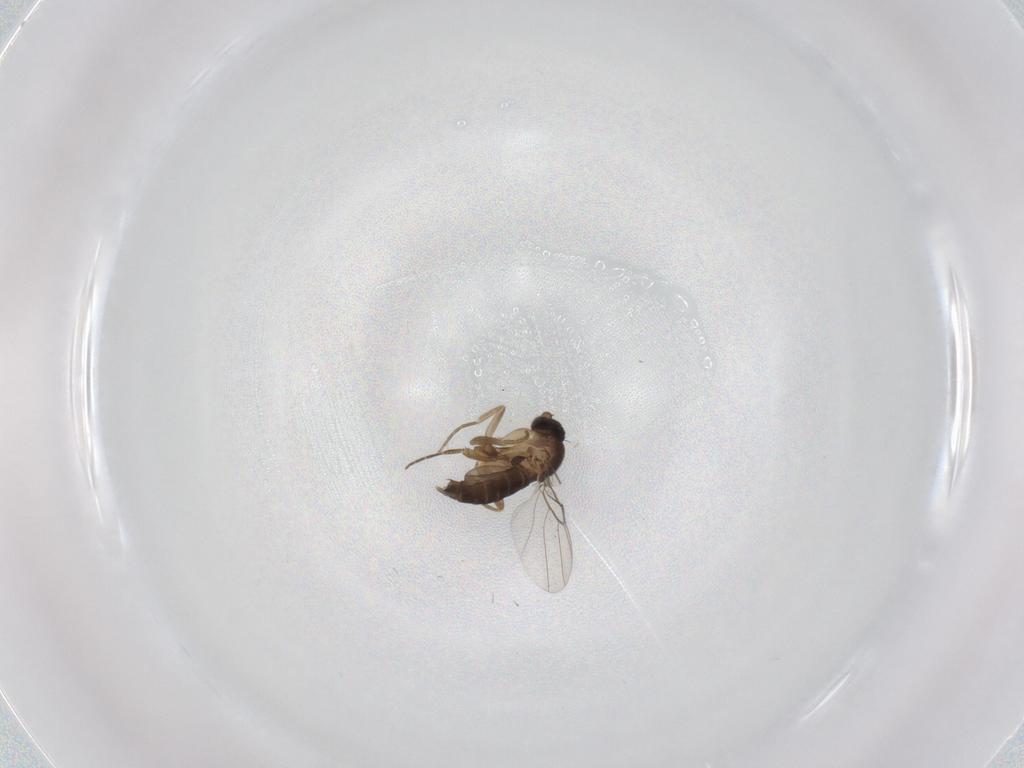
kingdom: Animalia
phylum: Arthropoda
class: Insecta
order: Diptera
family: Phoridae
